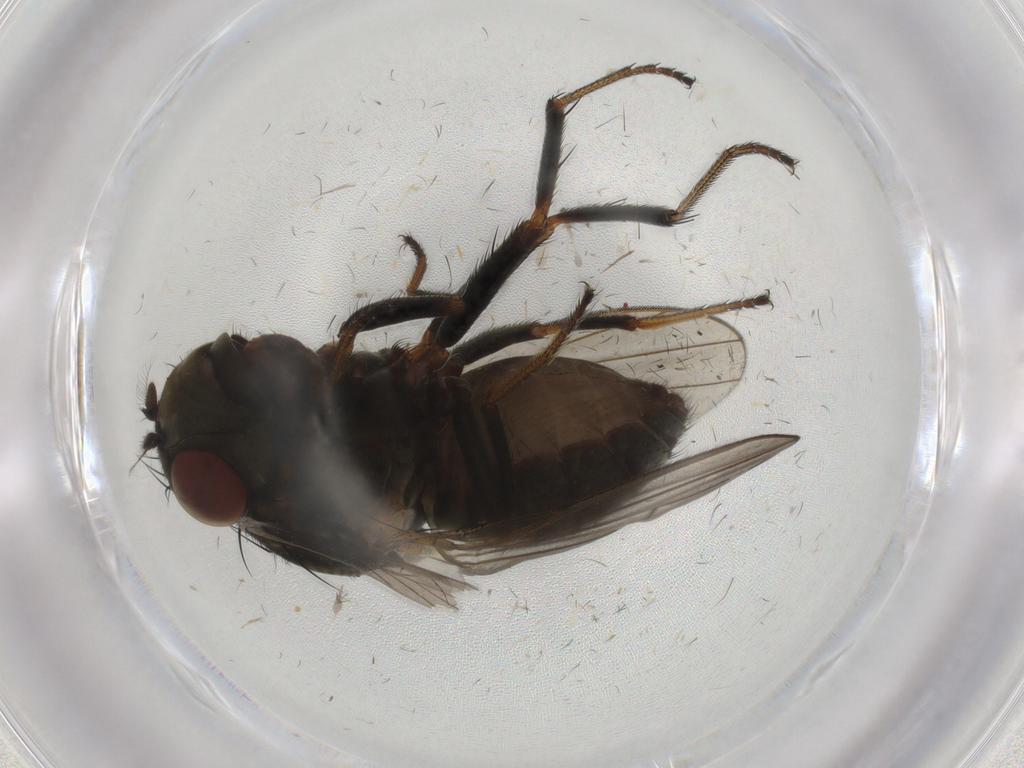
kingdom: Animalia
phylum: Arthropoda
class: Insecta
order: Diptera
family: Ephydridae
